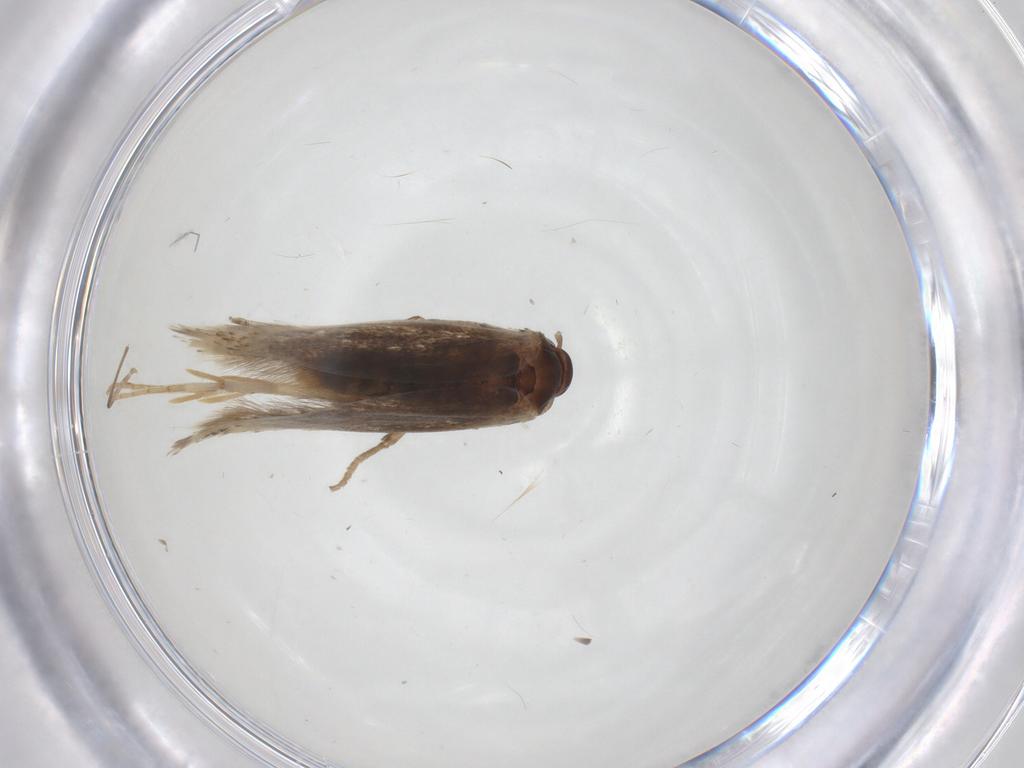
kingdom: Animalia
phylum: Arthropoda
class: Insecta
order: Lepidoptera
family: Elachistidae
